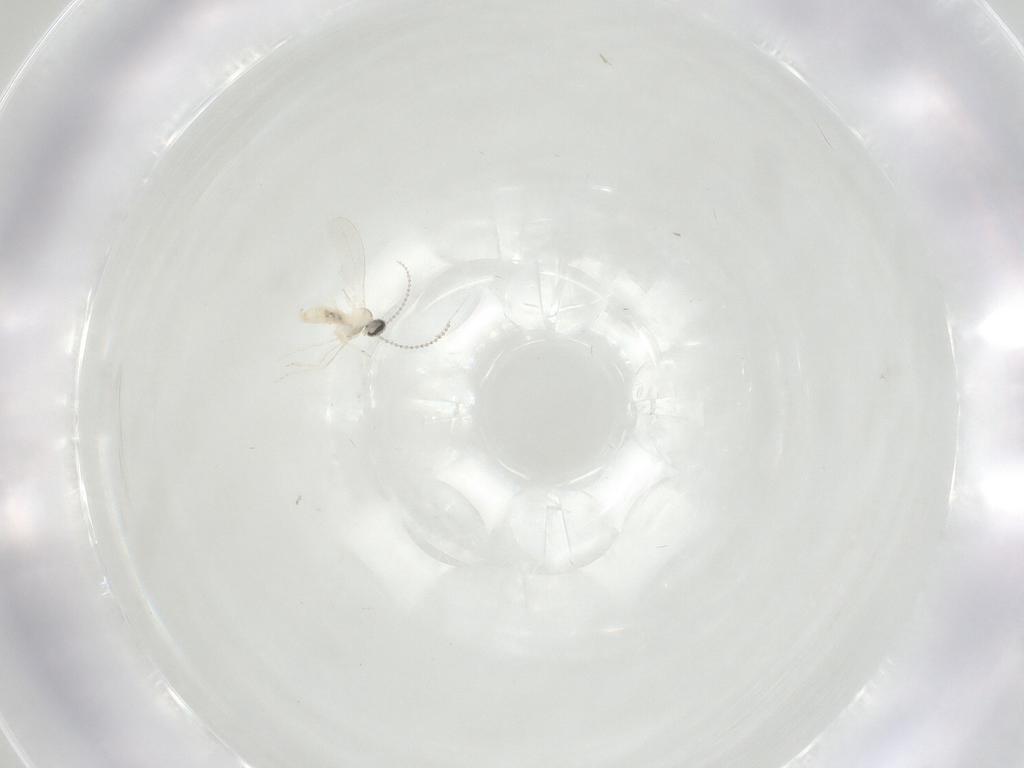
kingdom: Animalia
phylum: Arthropoda
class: Insecta
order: Diptera
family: Cecidomyiidae
